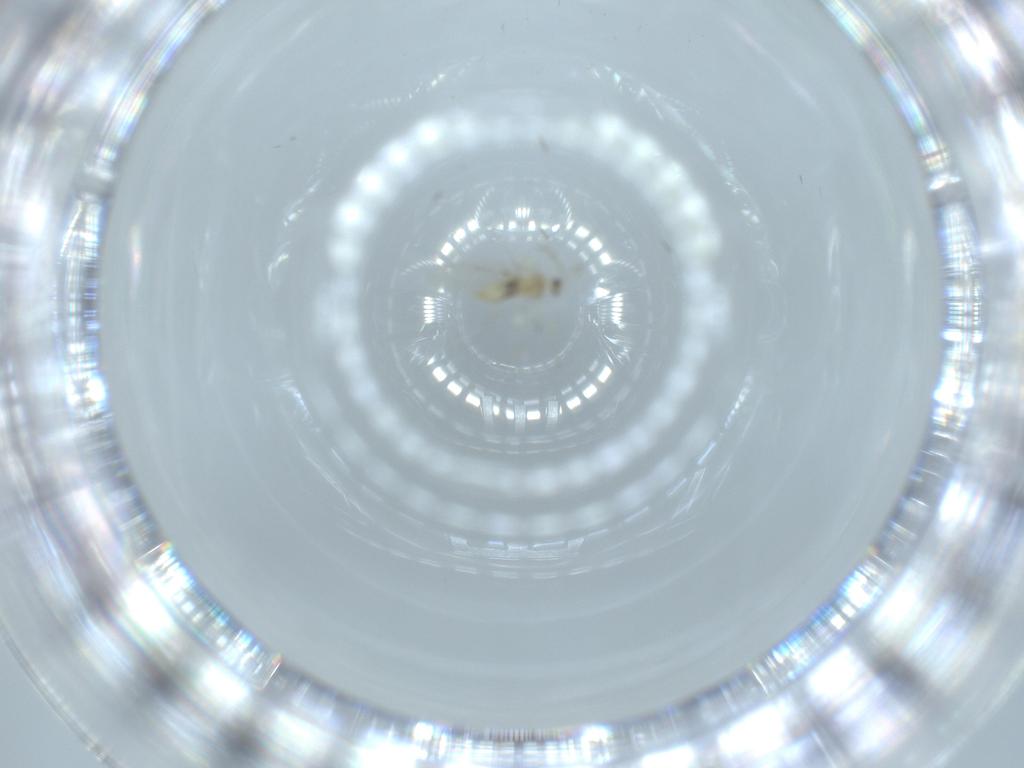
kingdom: Animalia
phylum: Arthropoda
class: Insecta
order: Diptera
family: Cecidomyiidae
